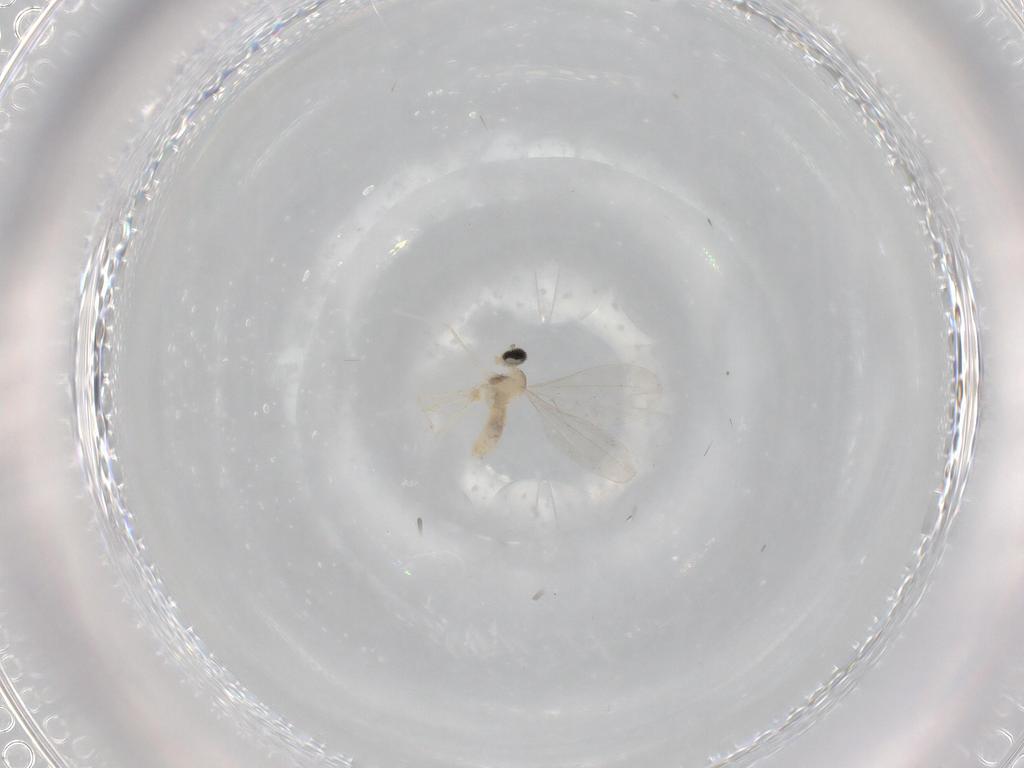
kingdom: Animalia
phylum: Arthropoda
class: Insecta
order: Diptera
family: Cecidomyiidae
